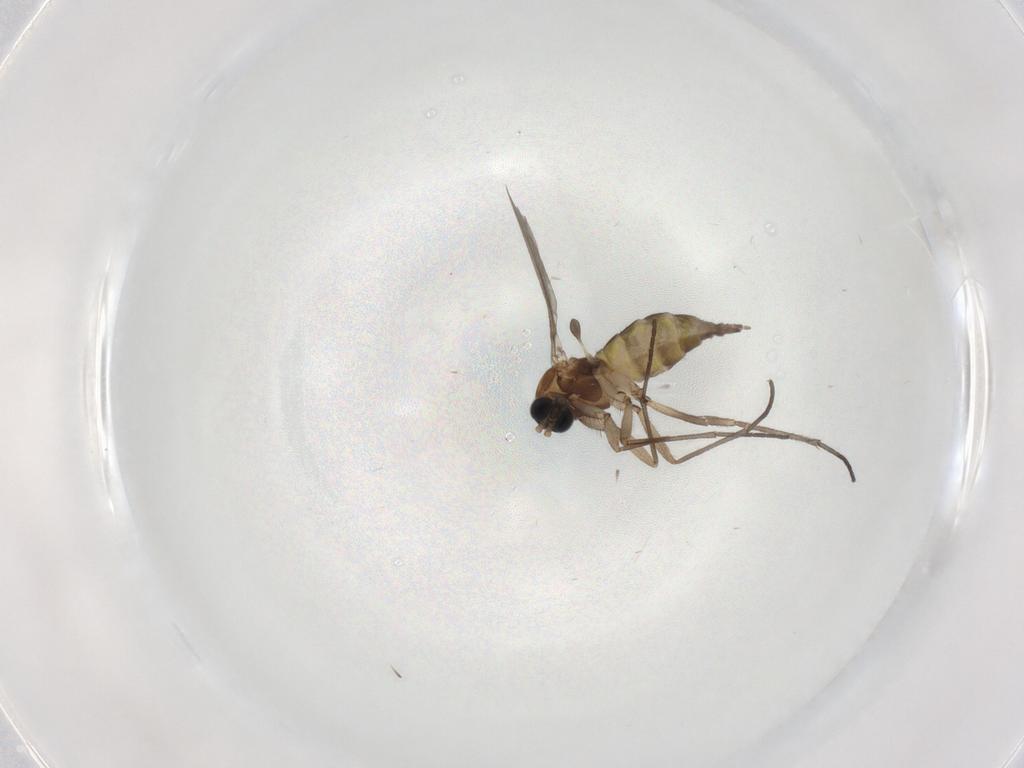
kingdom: Animalia
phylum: Arthropoda
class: Insecta
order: Diptera
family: Sciaridae
